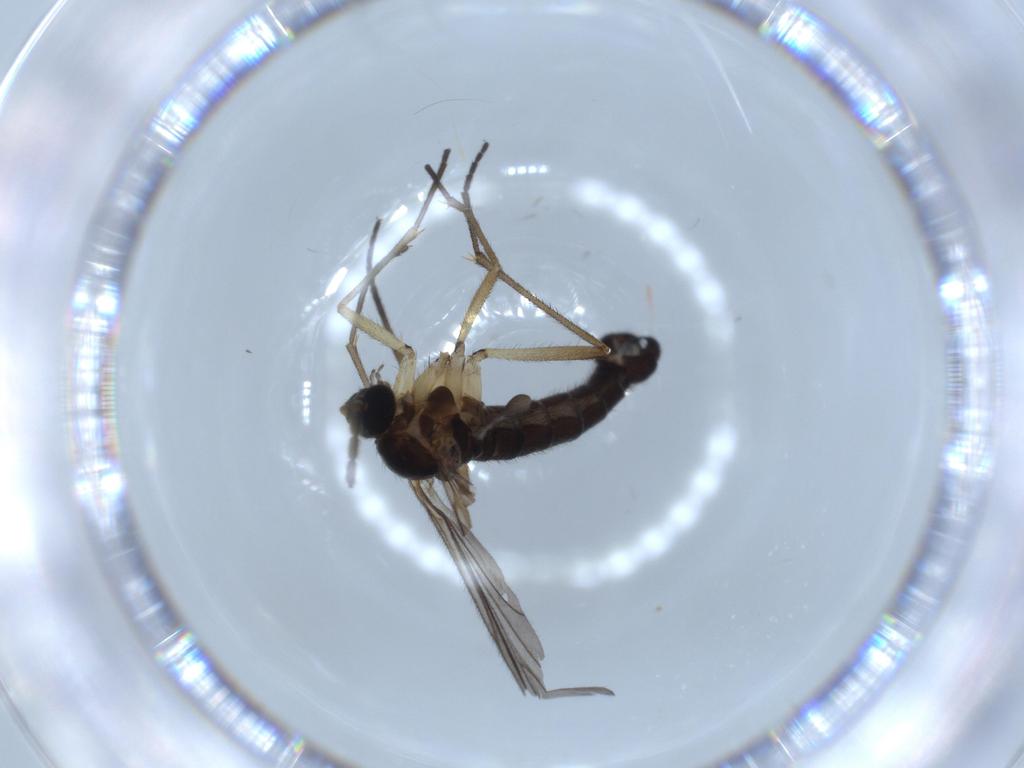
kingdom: Animalia
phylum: Arthropoda
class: Insecta
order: Diptera
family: Sciaridae
